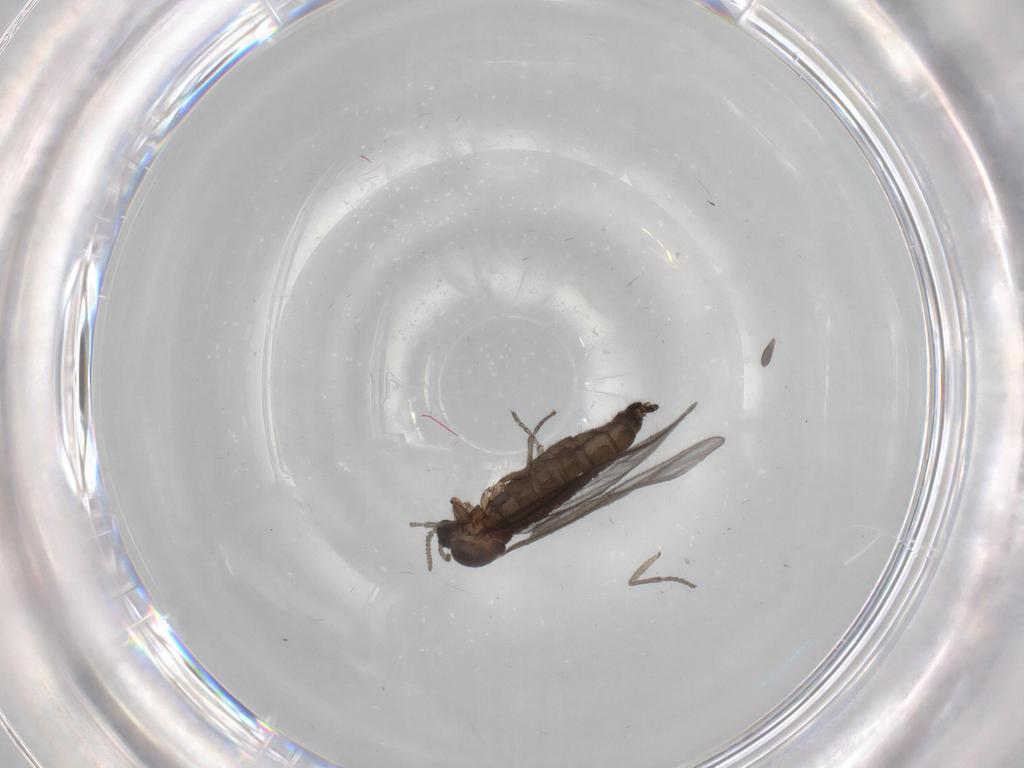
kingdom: Animalia
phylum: Arthropoda
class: Insecta
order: Diptera
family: Sciaridae
